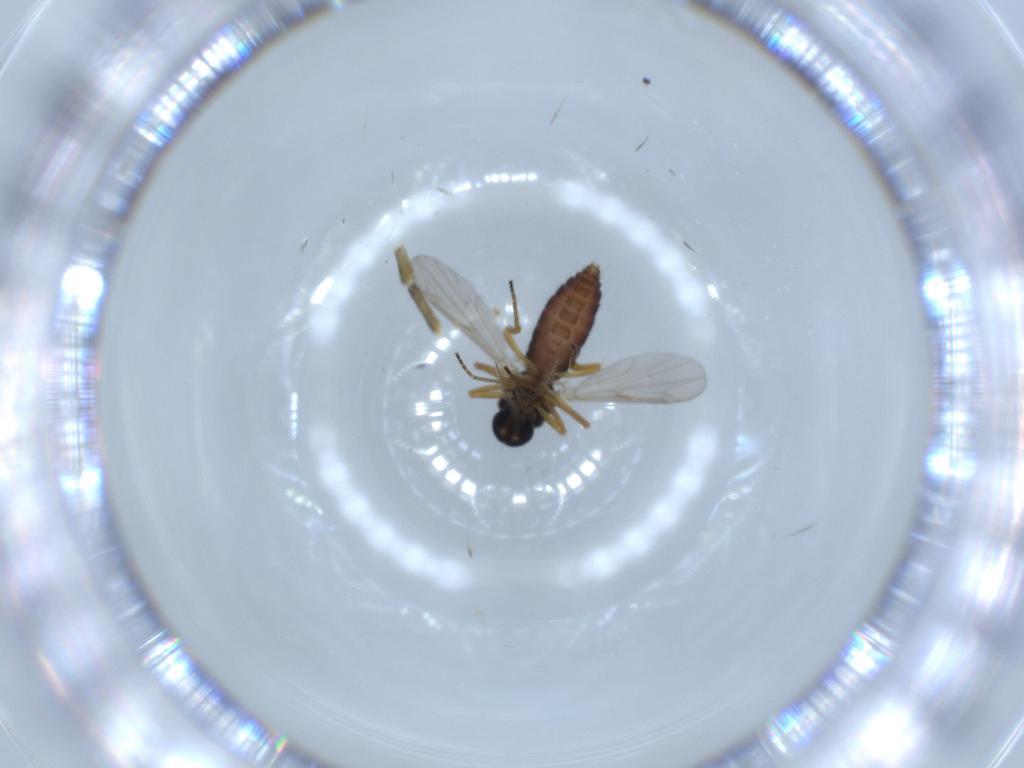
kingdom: Animalia
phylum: Arthropoda
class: Insecta
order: Diptera
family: Ceratopogonidae
